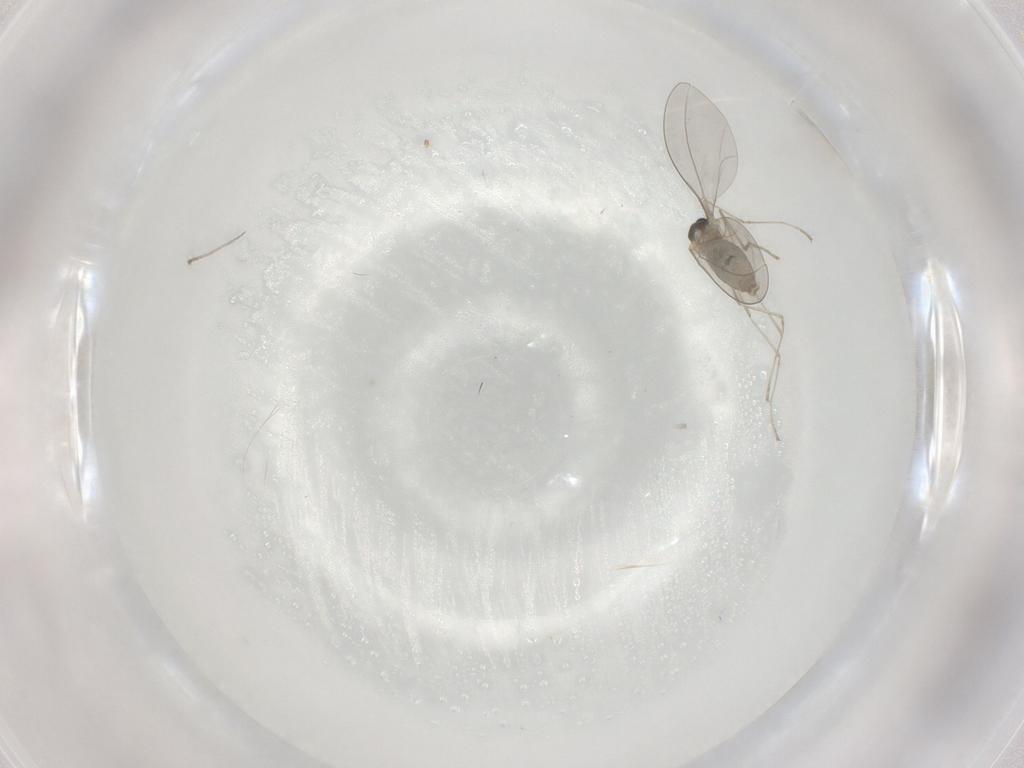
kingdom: Animalia
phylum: Arthropoda
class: Insecta
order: Diptera
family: Cecidomyiidae
